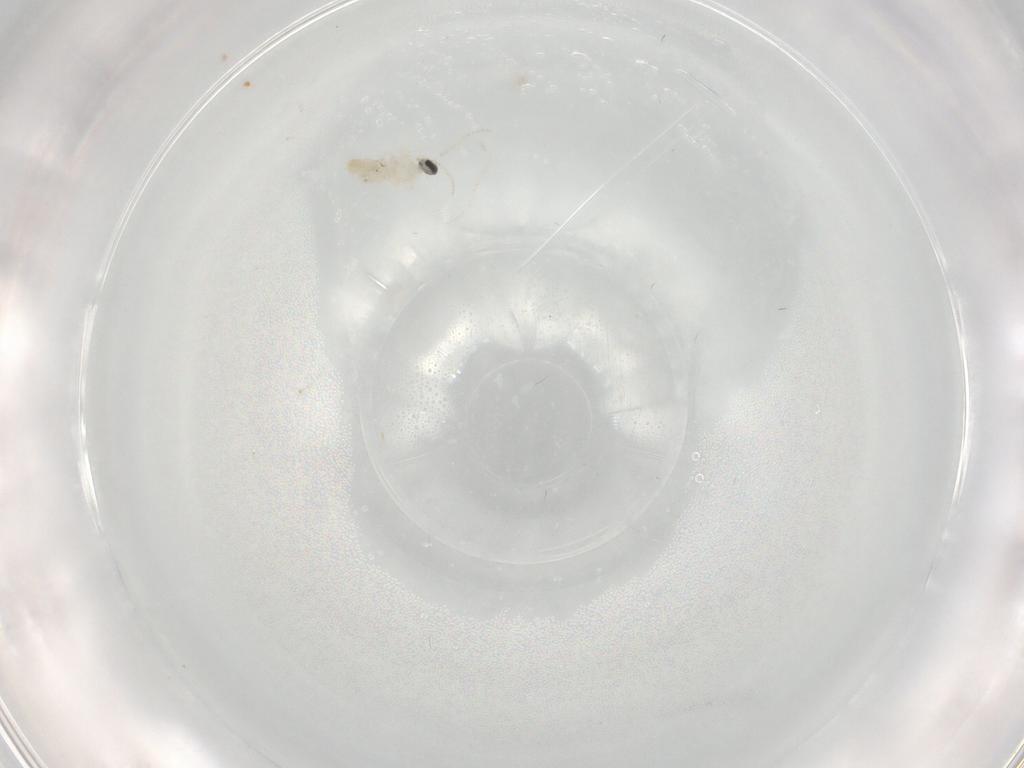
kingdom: Animalia
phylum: Arthropoda
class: Insecta
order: Diptera
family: Cecidomyiidae
